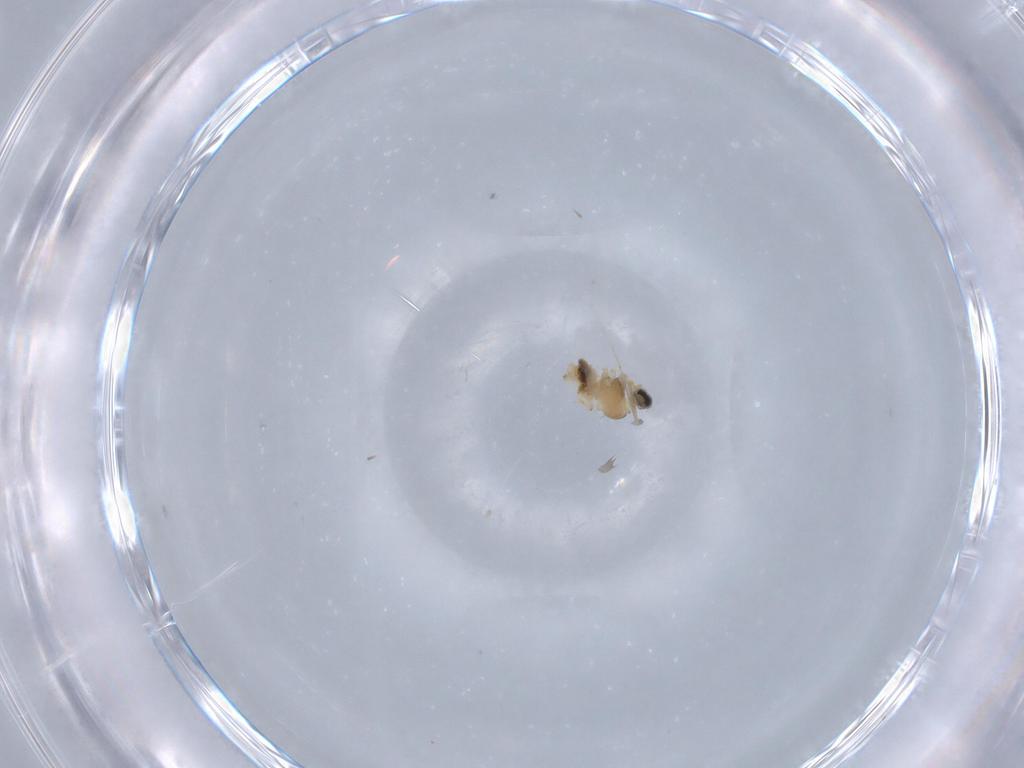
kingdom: Animalia
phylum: Arthropoda
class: Insecta
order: Diptera
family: Cecidomyiidae
